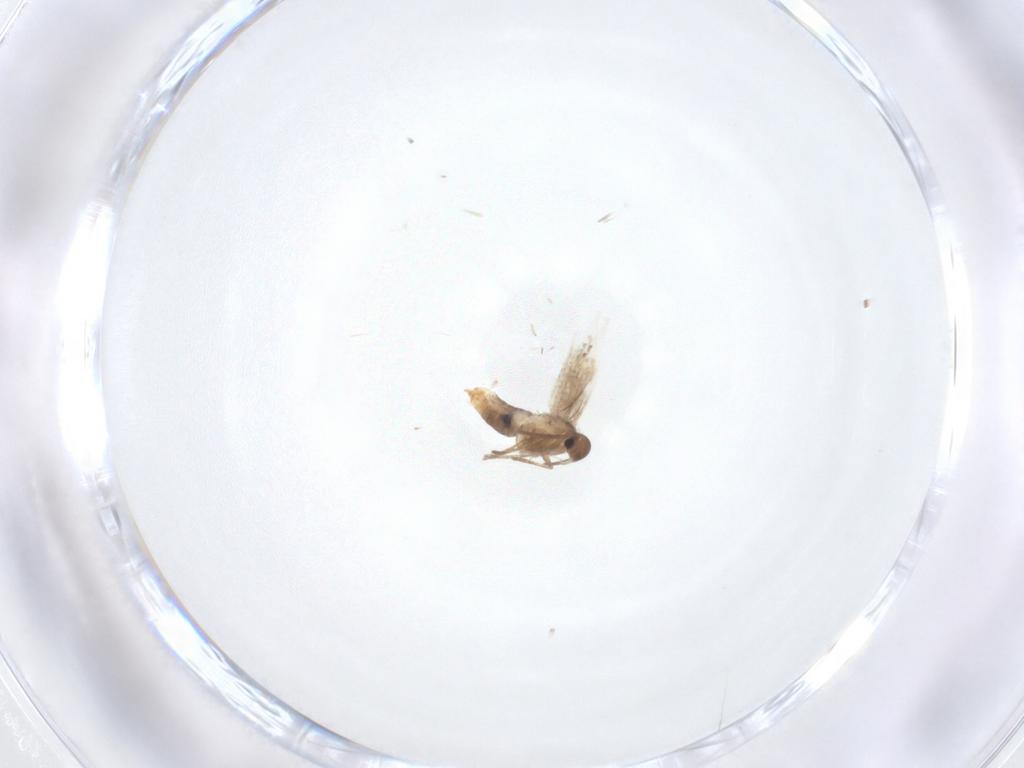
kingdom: Animalia
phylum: Arthropoda
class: Insecta
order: Lepidoptera
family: Heliozelidae
